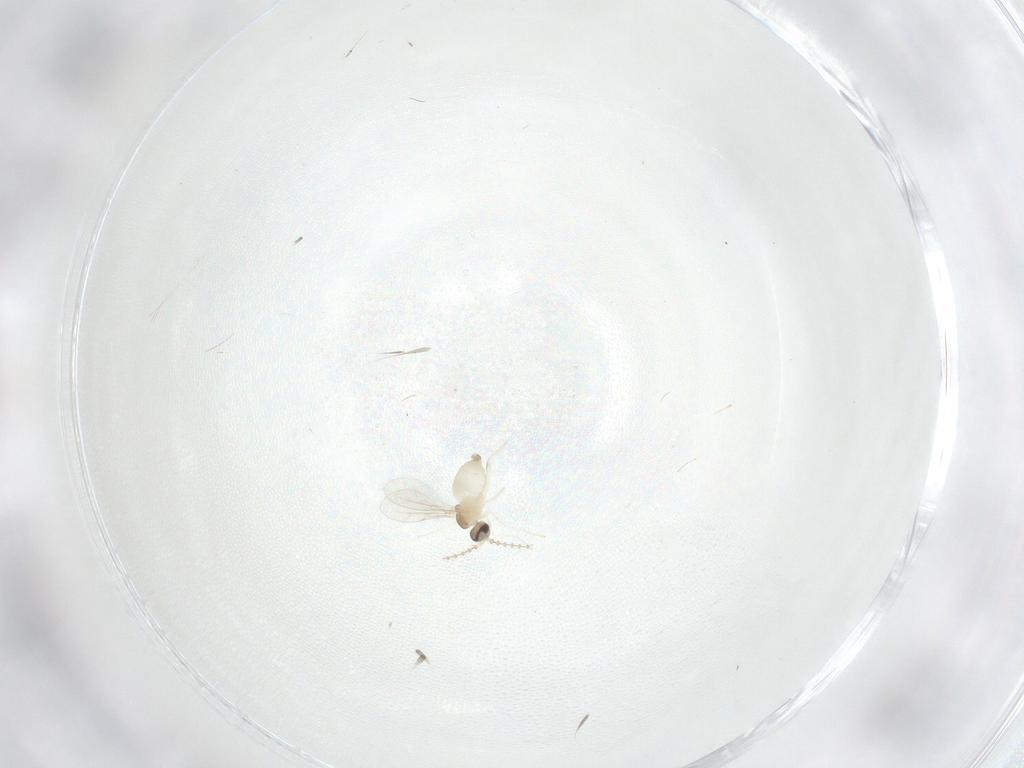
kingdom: Animalia
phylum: Arthropoda
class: Insecta
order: Diptera
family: Cecidomyiidae
